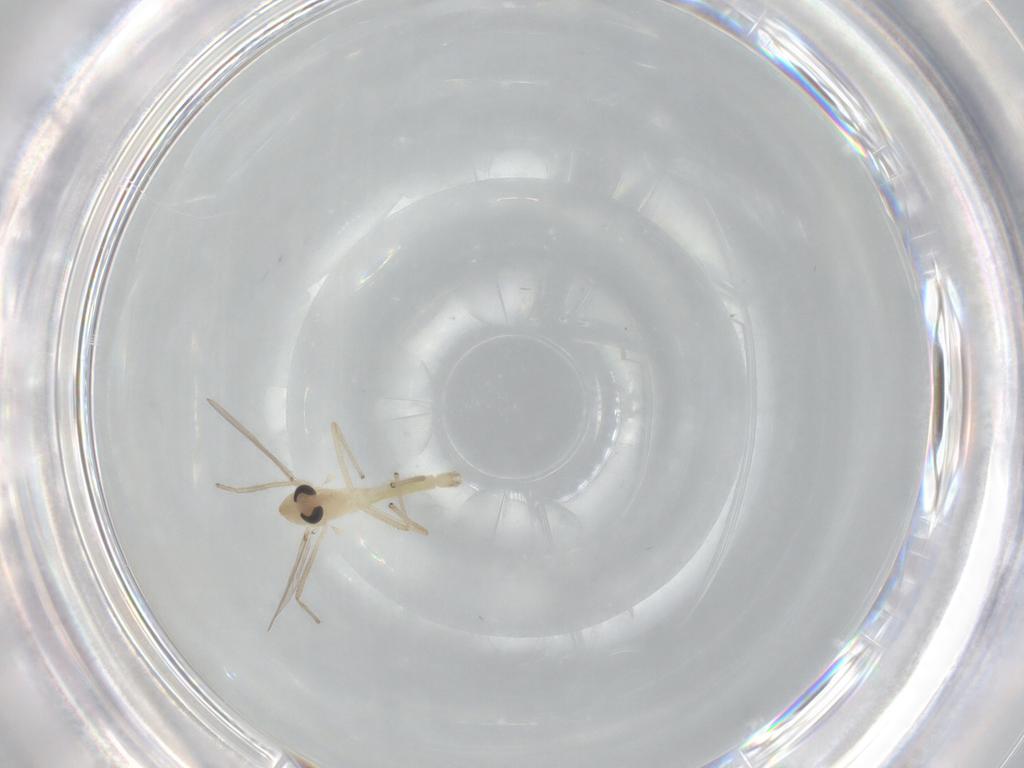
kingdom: Animalia
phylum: Arthropoda
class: Insecta
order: Diptera
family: Chironomidae
